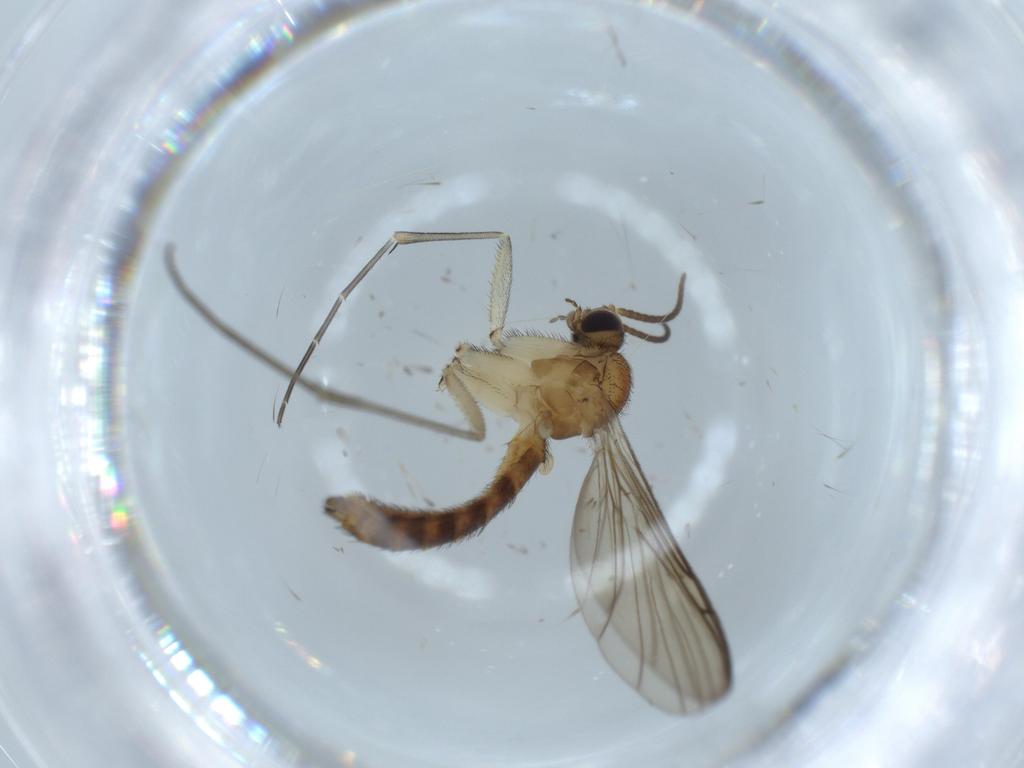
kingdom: Animalia
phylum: Arthropoda
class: Insecta
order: Diptera
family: Keroplatidae
